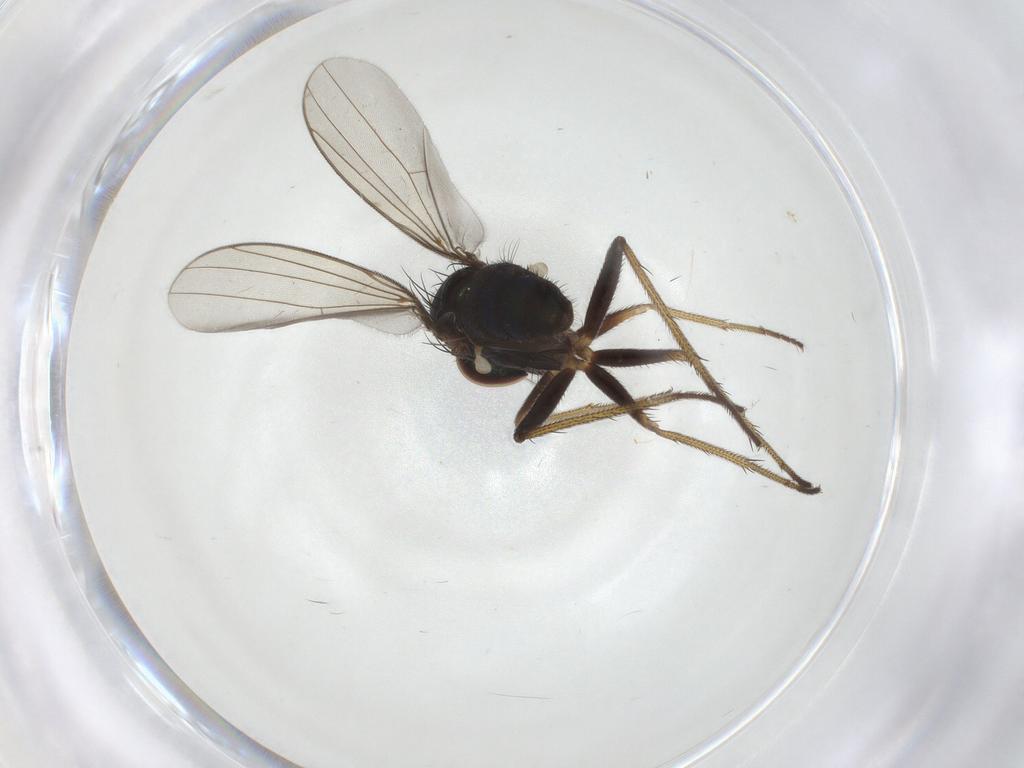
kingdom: Animalia
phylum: Arthropoda
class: Insecta
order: Diptera
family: Dolichopodidae
